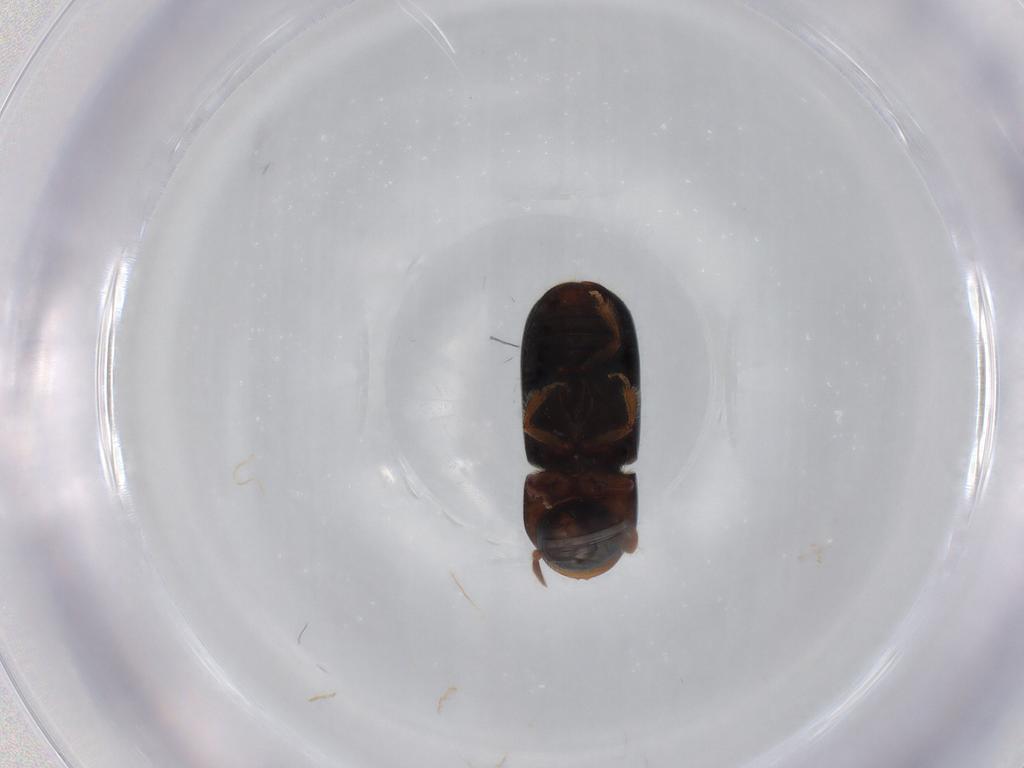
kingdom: Animalia
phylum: Arthropoda
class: Insecta
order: Coleoptera
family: Curculionidae
